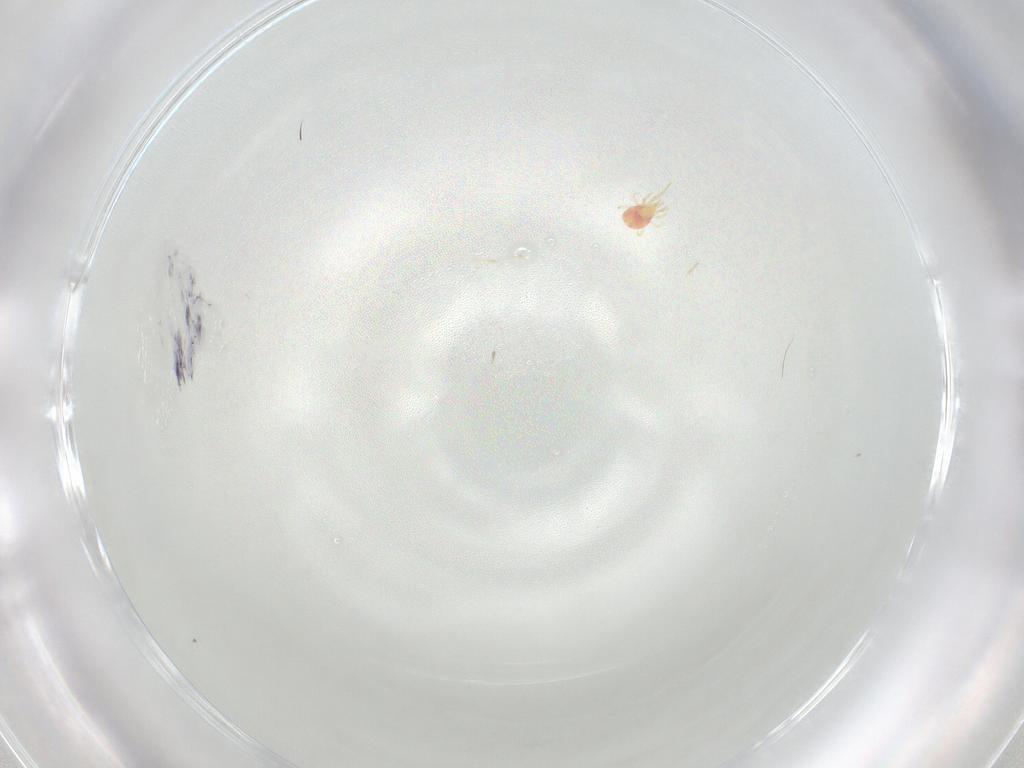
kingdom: Animalia
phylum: Arthropoda
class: Arachnida
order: Mesostigmata
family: Phytoseiidae
